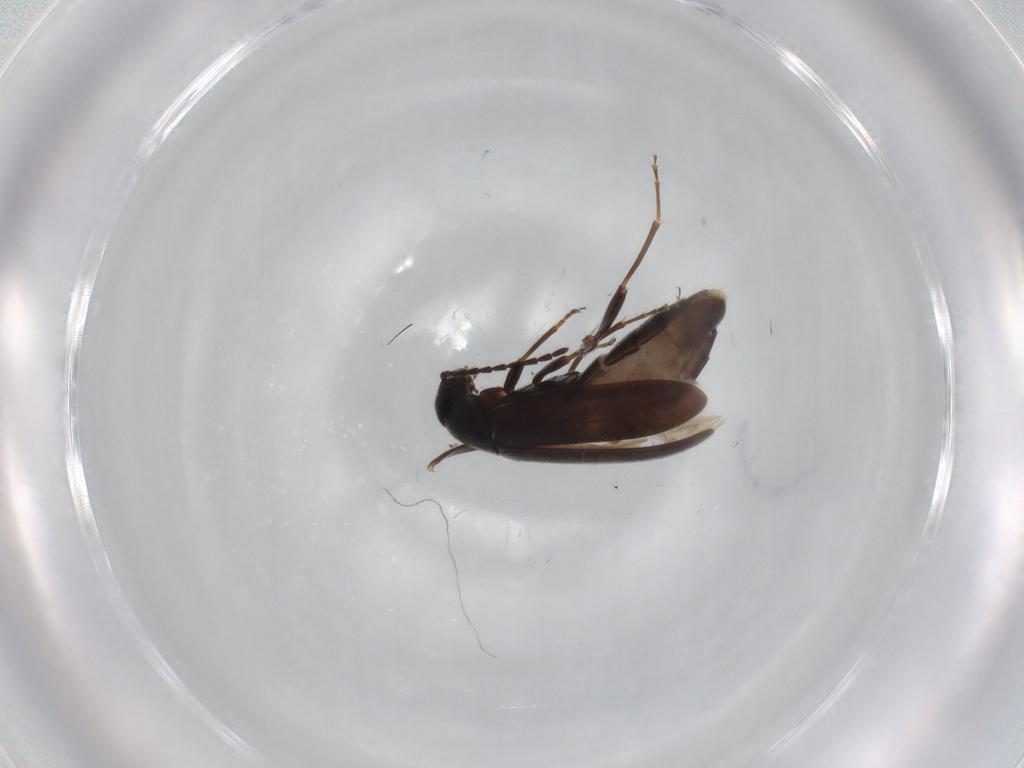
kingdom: Animalia
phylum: Arthropoda
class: Insecta
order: Coleoptera
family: Scraptiidae
